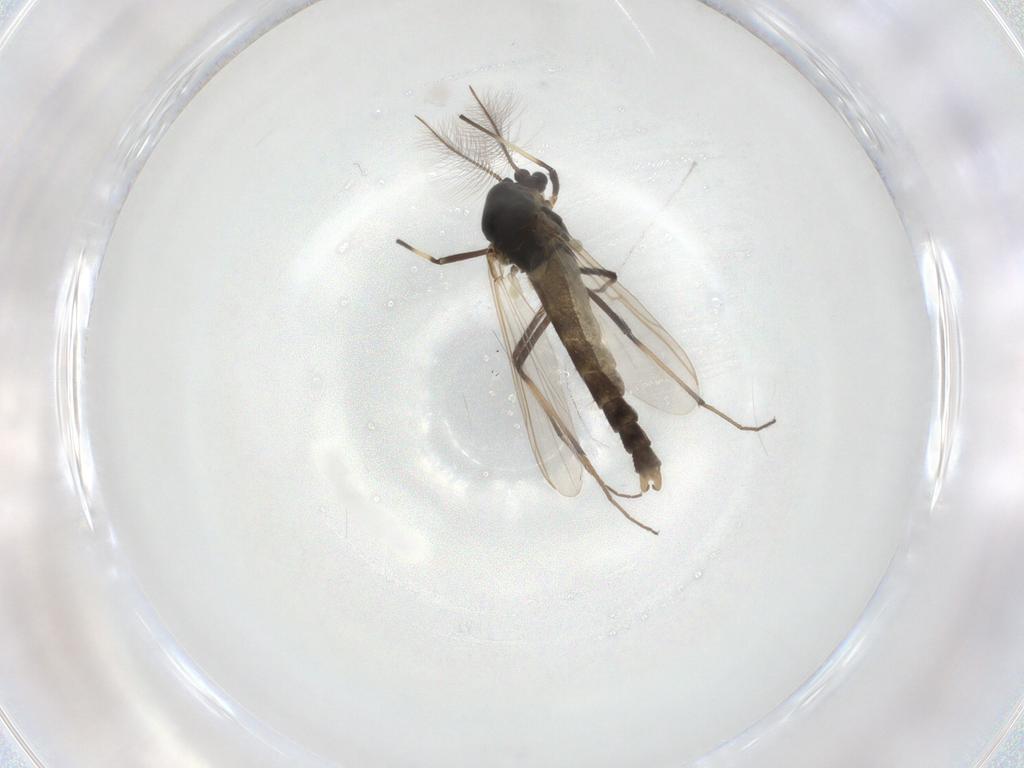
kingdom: Animalia
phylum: Arthropoda
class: Insecta
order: Diptera
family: Chironomidae
